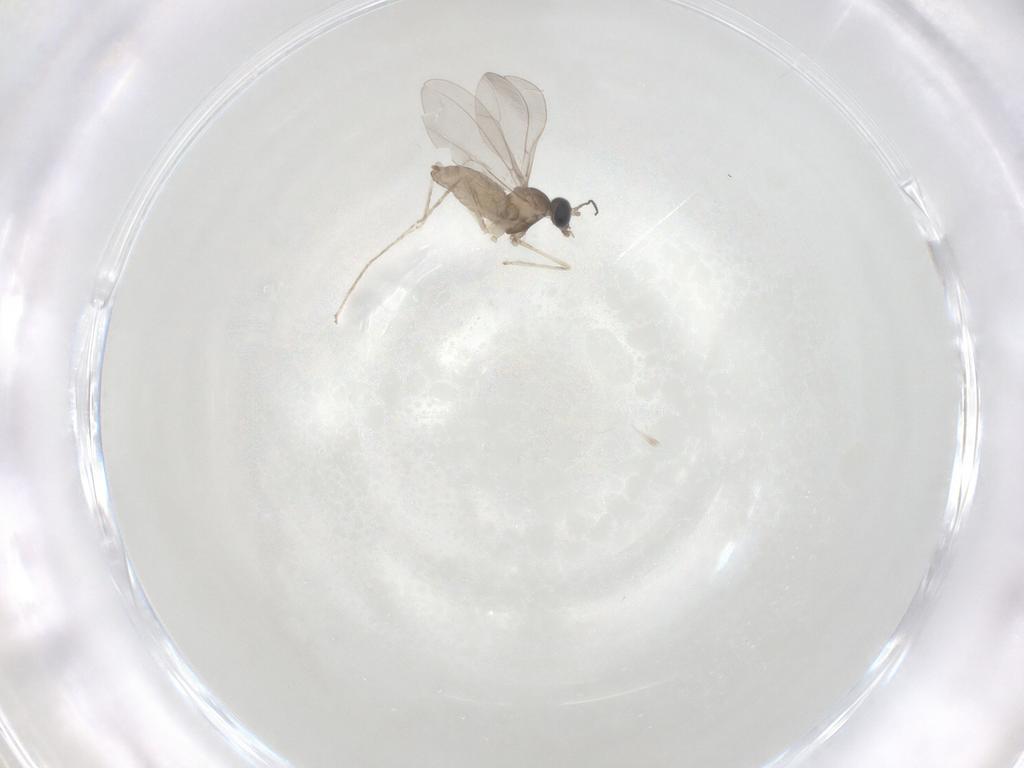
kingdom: Animalia
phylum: Arthropoda
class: Insecta
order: Diptera
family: Cecidomyiidae
